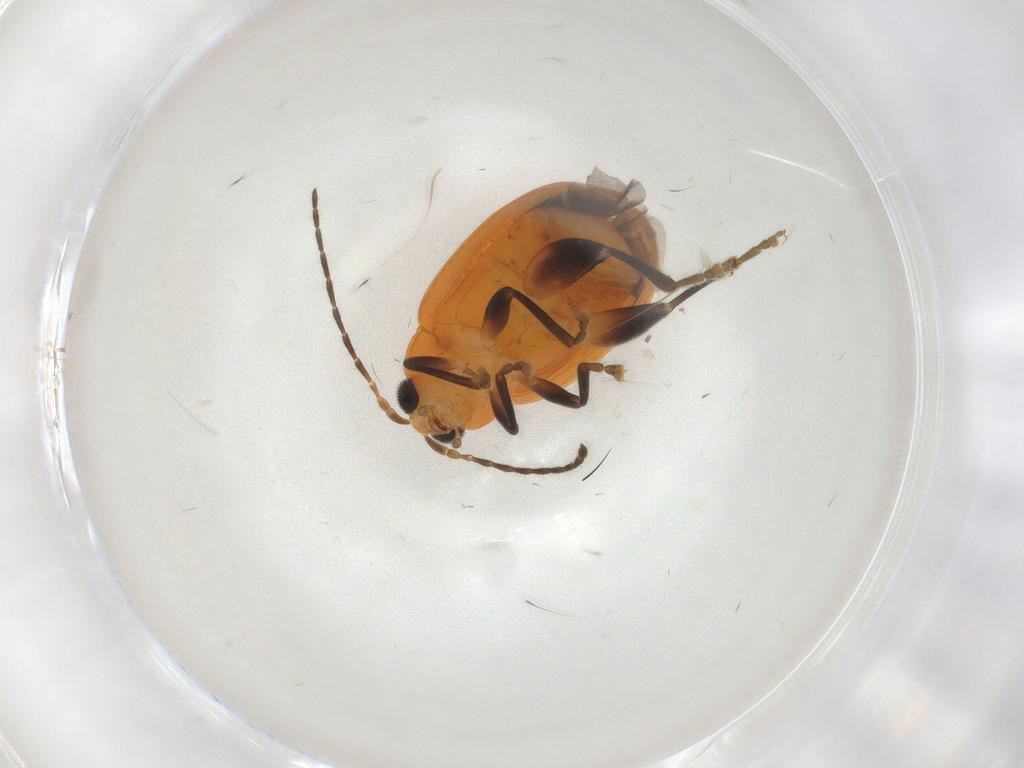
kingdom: Animalia
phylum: Arthropoda
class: Insecta
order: Coleoptera
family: Chrysomelidae
